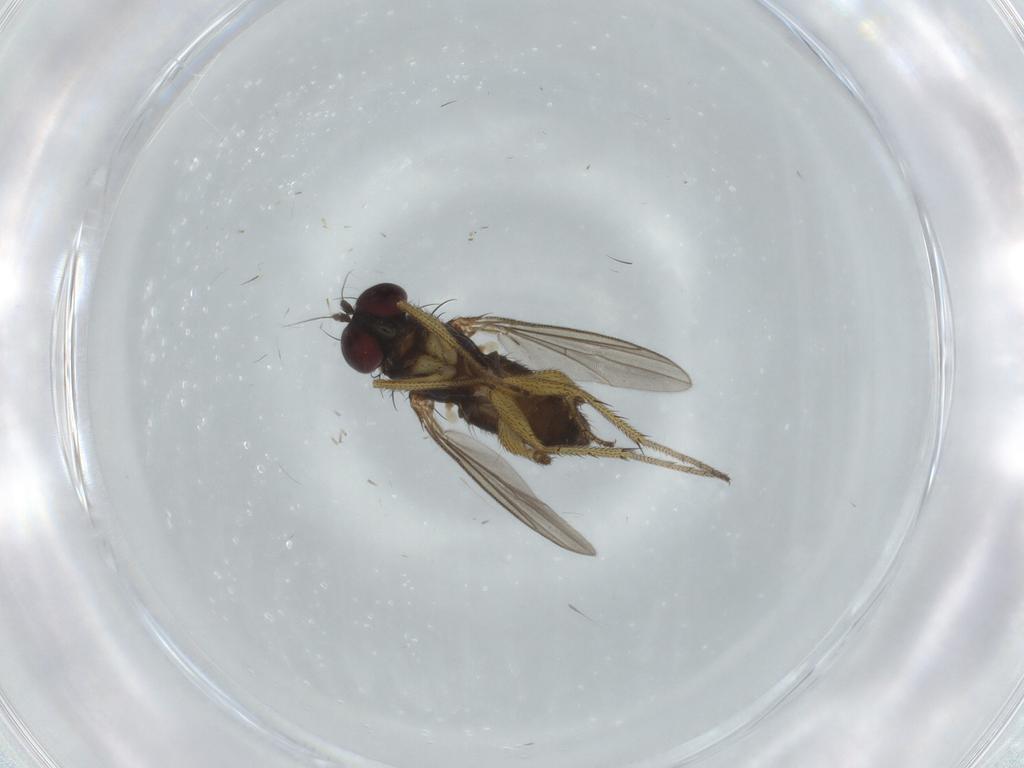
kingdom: Animalia
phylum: Arthropoda
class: Insecta
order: Diptera
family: Dolichopodidae
